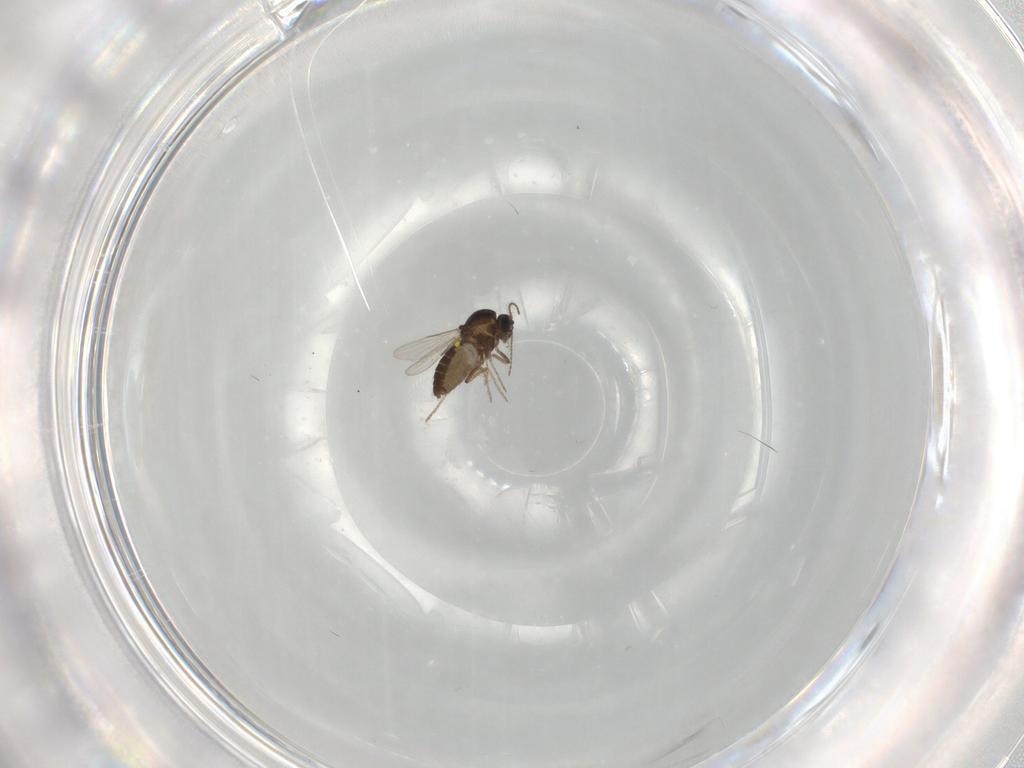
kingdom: Animalia
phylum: Arthropoda
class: Insecta
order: Diptera
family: Ceratopogonidae
